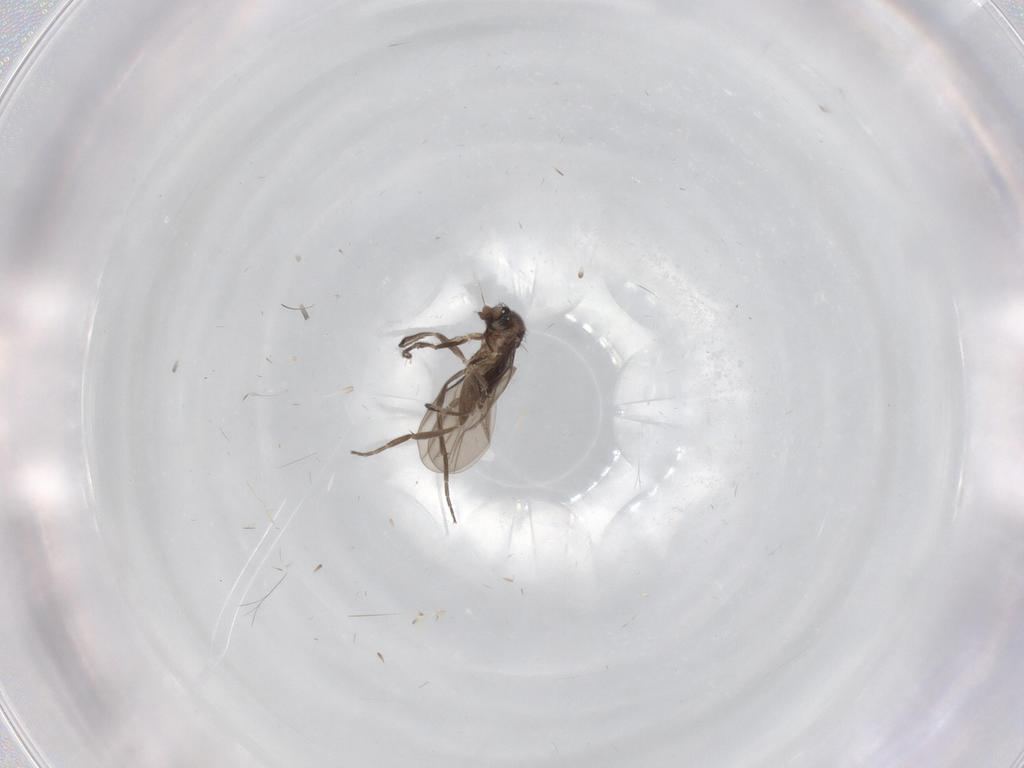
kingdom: Animalia
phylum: Arthropoda
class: Insecta
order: Diptera
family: Phoridae
